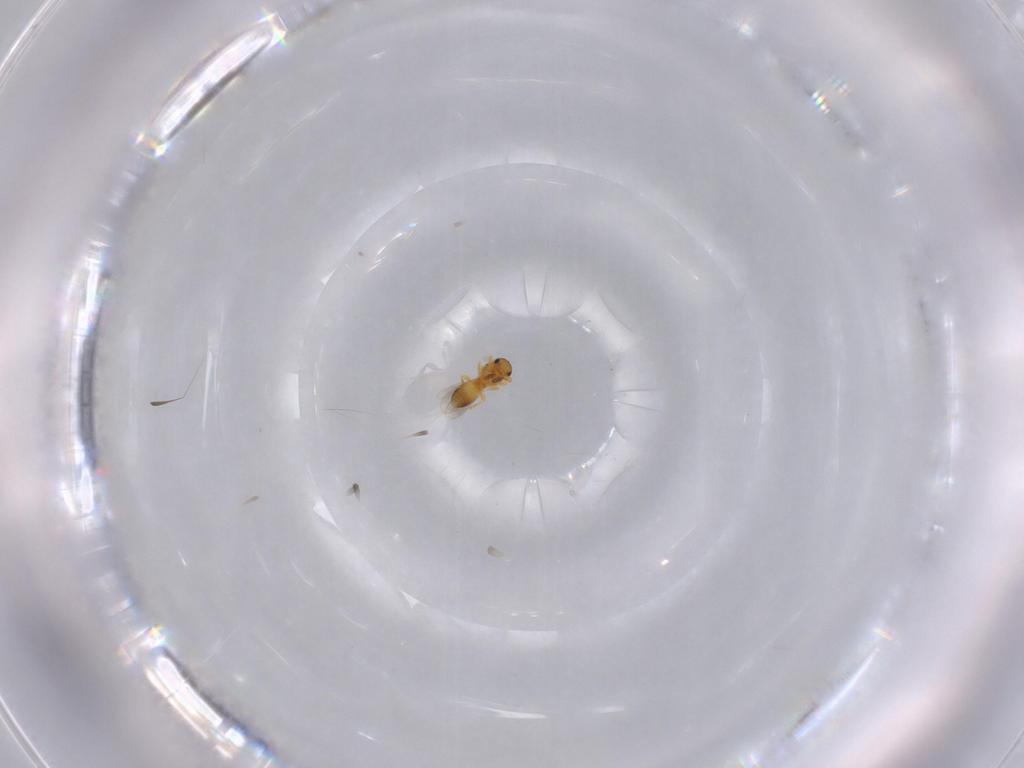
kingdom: Animalia
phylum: Arthropoda
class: Insecta
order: Hymenoptera
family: Platygastridae
